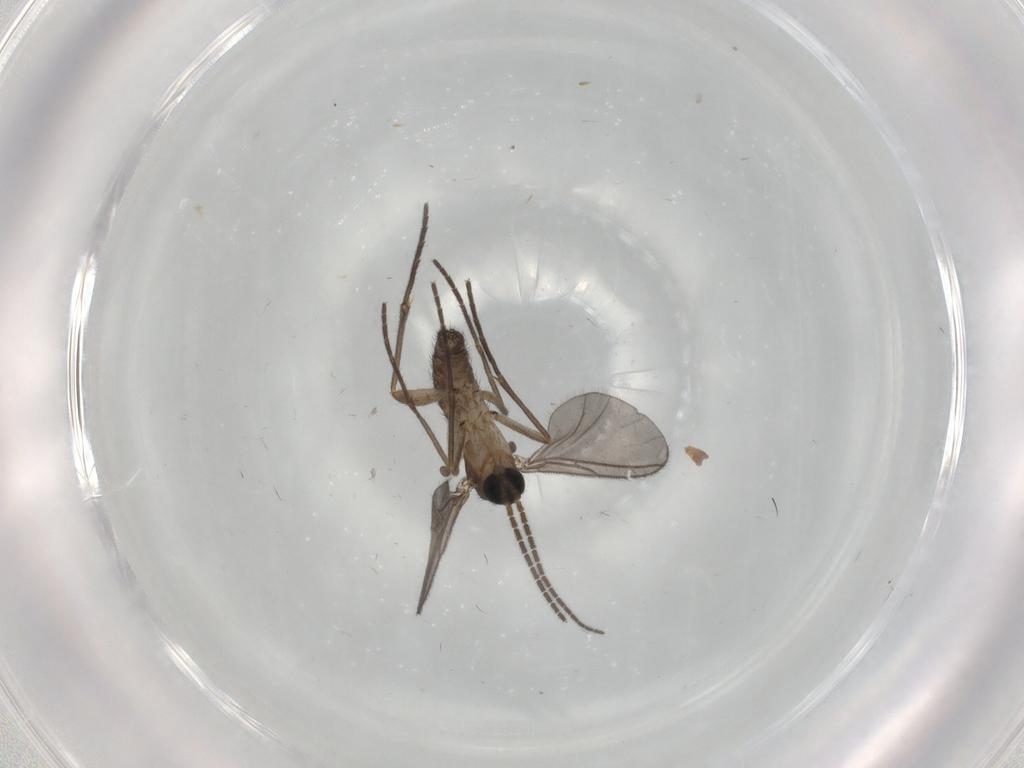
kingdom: Animalia
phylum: Arthropoda
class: Insecta
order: Diptera
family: Sciaridae
